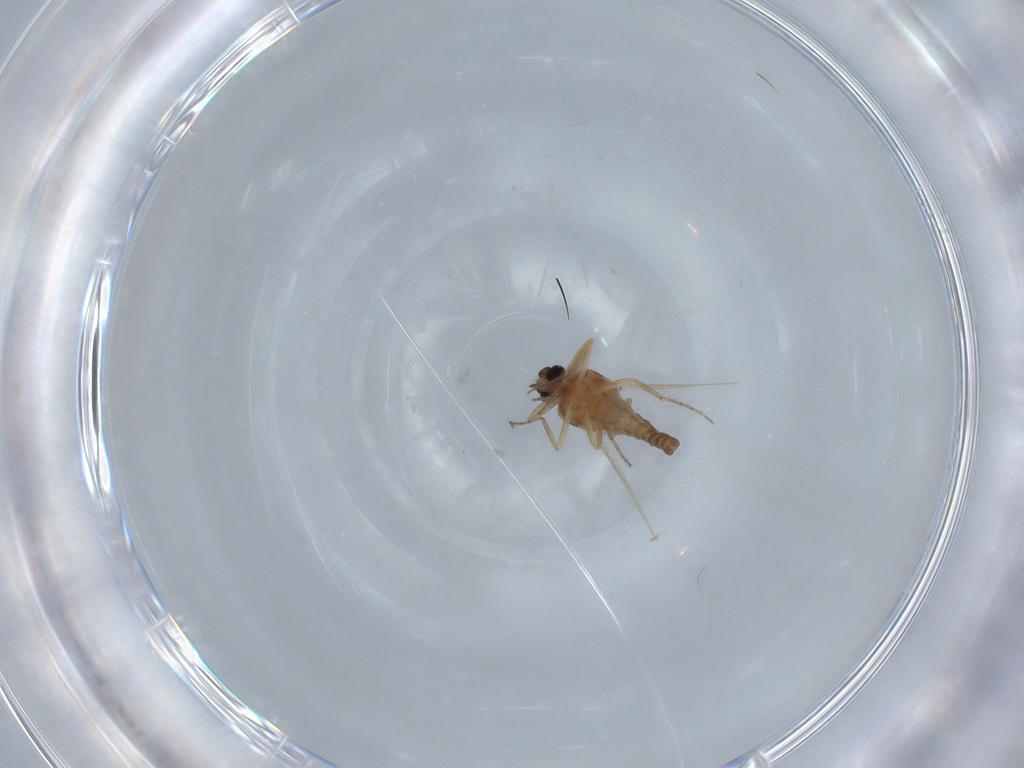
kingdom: Animalia
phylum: Arthropoda
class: Insecta
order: Diptera
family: Ceratopogonidae
